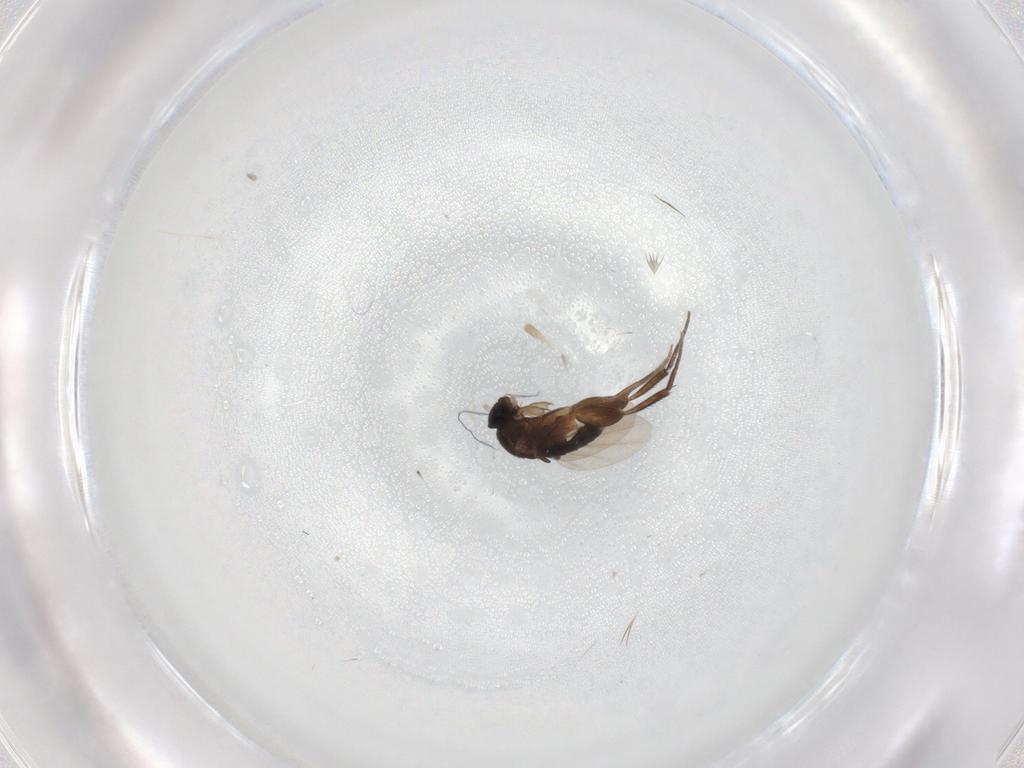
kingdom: Animalia
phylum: Arthropoda
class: Insecta
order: Diptera
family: Phoridae
